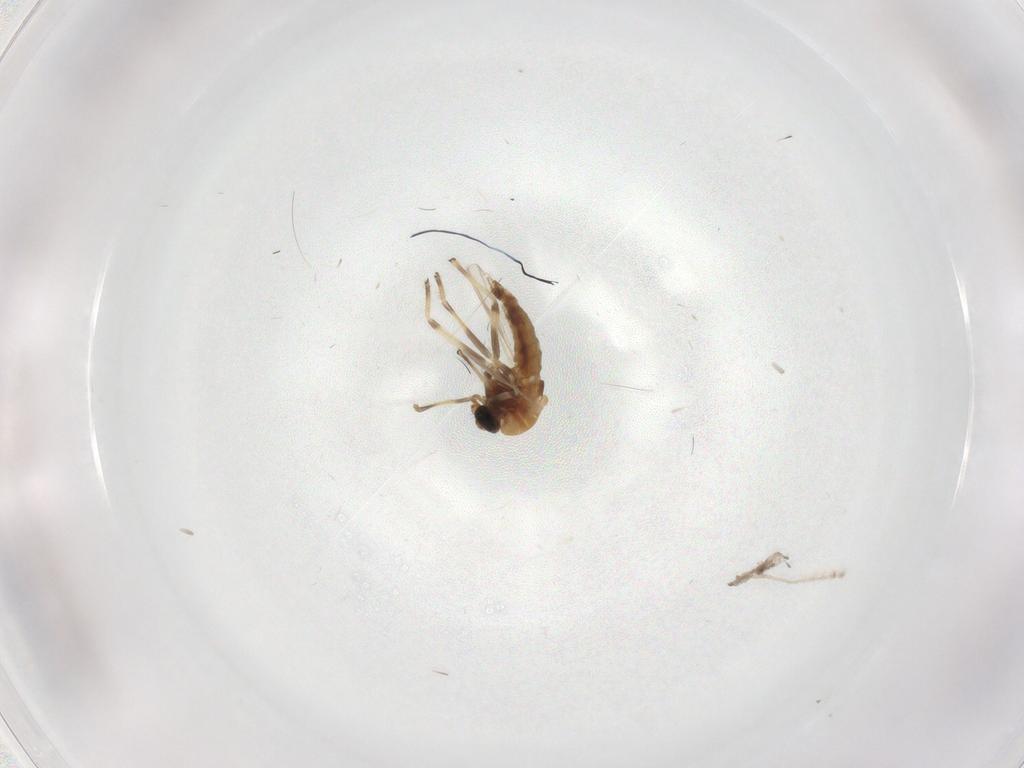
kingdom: Animalia
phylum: Arthropoda
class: Insecta
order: Diptera
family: Chironomidae
